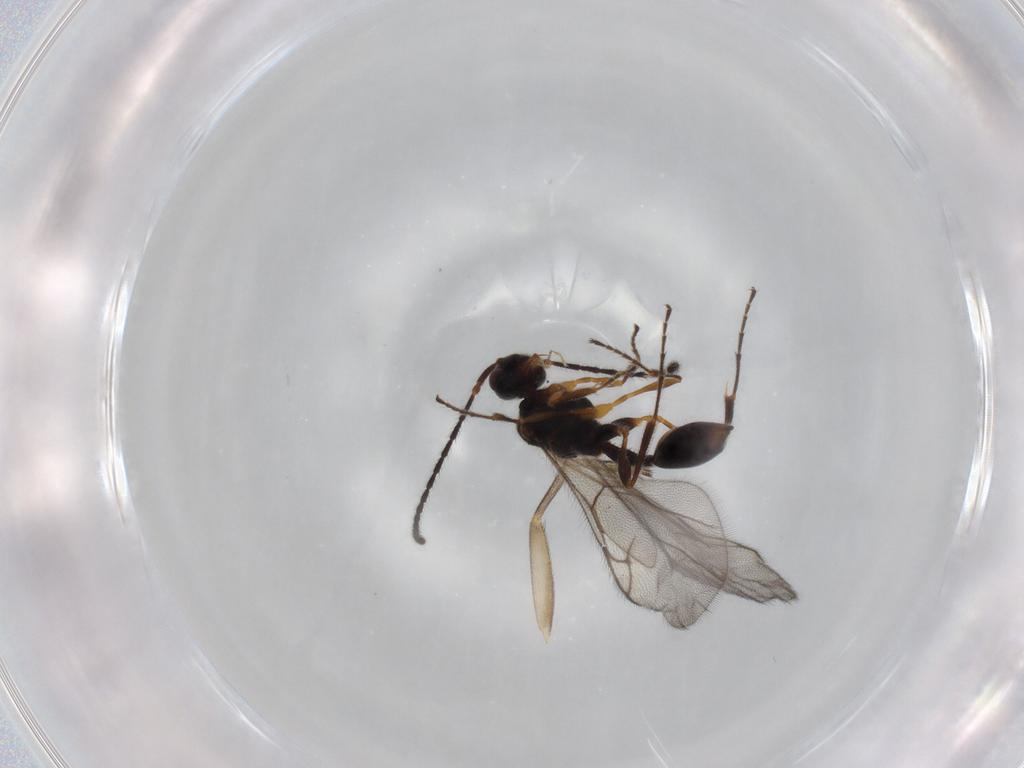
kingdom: Animalia
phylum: Arthropoda
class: Insecta
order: Hymenoptera
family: Diapriidae
